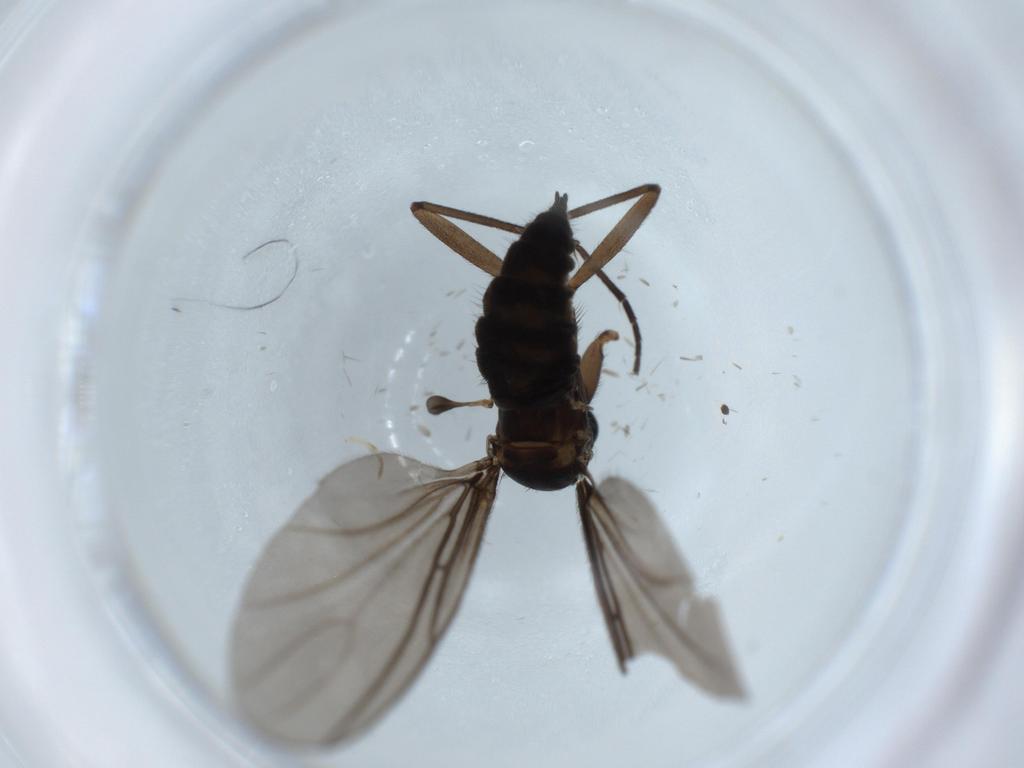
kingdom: Animalia
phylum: Arthropoda
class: Insecta
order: Diptera
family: Sciaridae
